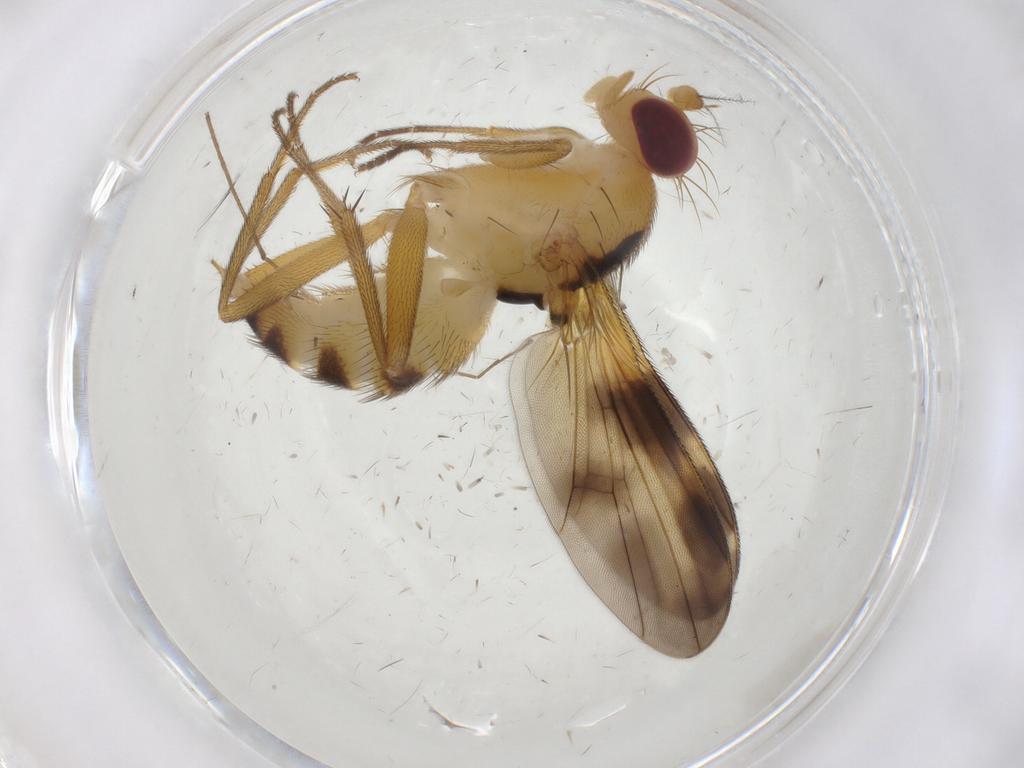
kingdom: Animalia
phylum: Arthropoda
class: Insecta
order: Diptera
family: Clusiidae
